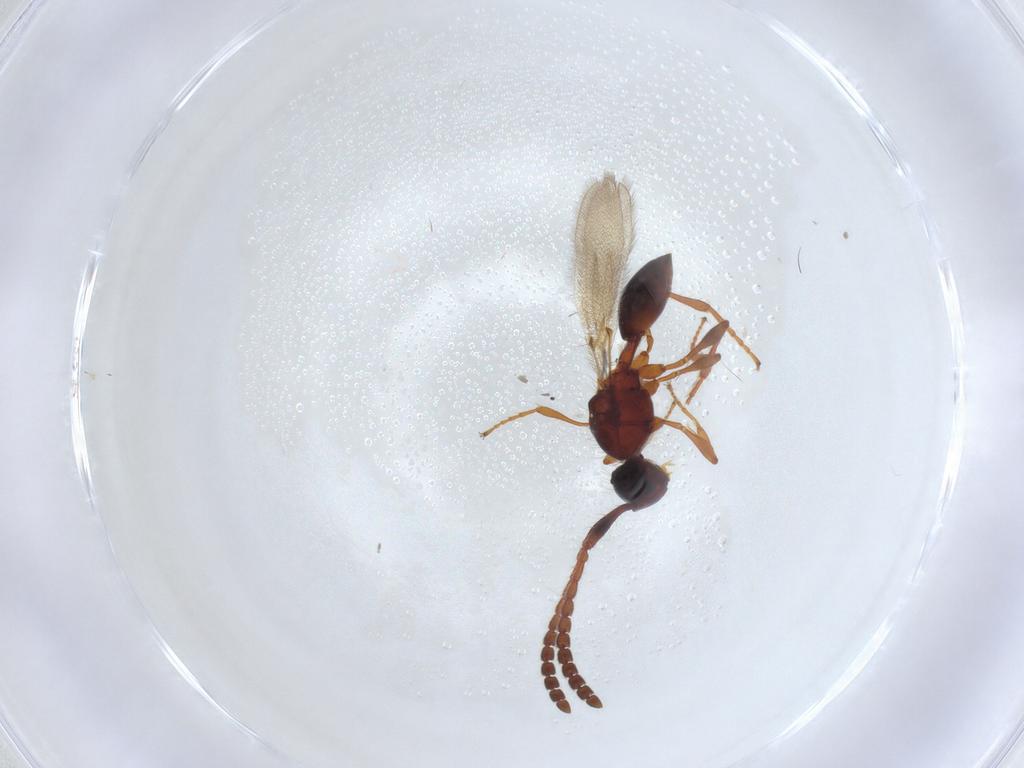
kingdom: Animalia
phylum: Arthropoda
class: Insecta
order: Hymenoptera
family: Diapriidae
